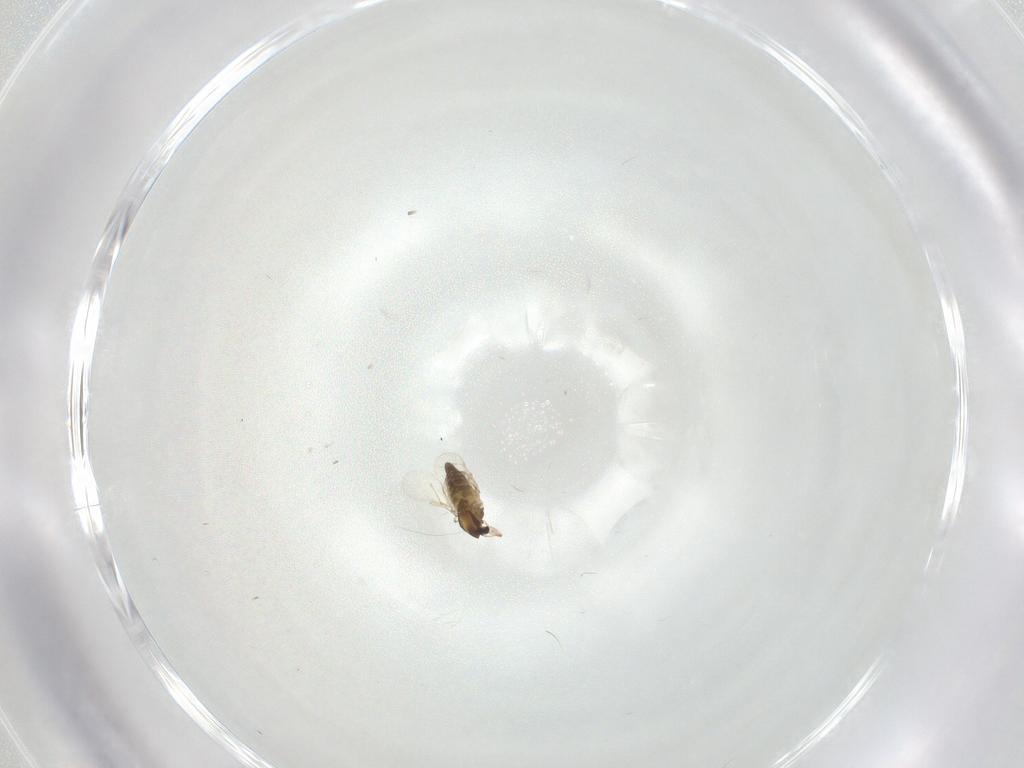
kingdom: Animalia
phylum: Arthropoda
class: Insecta
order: Diptera
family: Chironomidae
